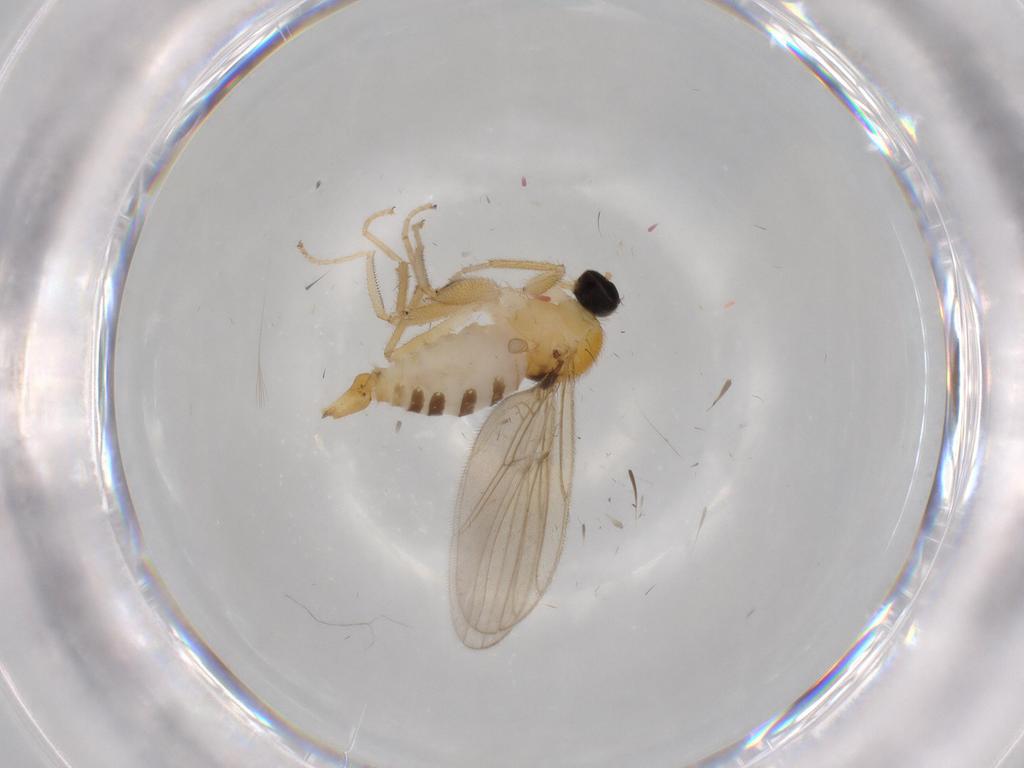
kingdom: Animalia
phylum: Arthropoda
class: Insecta
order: Diptera
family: Hybotidae
